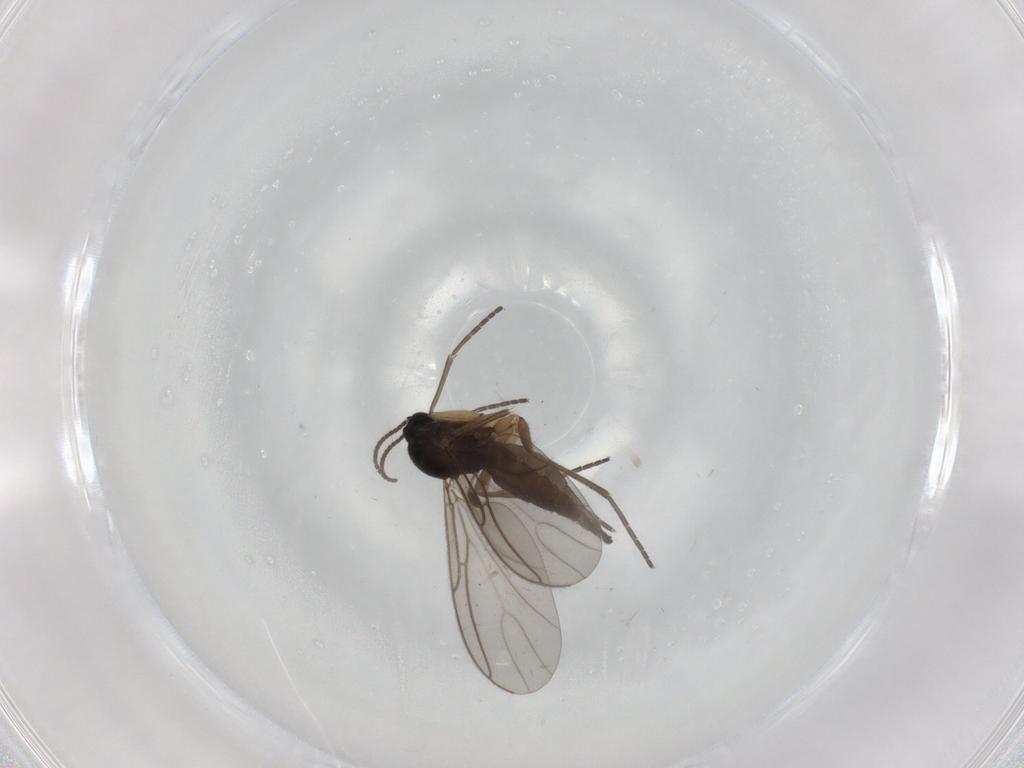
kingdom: Animalia
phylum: Arthropoda
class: Insecta
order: Diptera
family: Sciaridae
